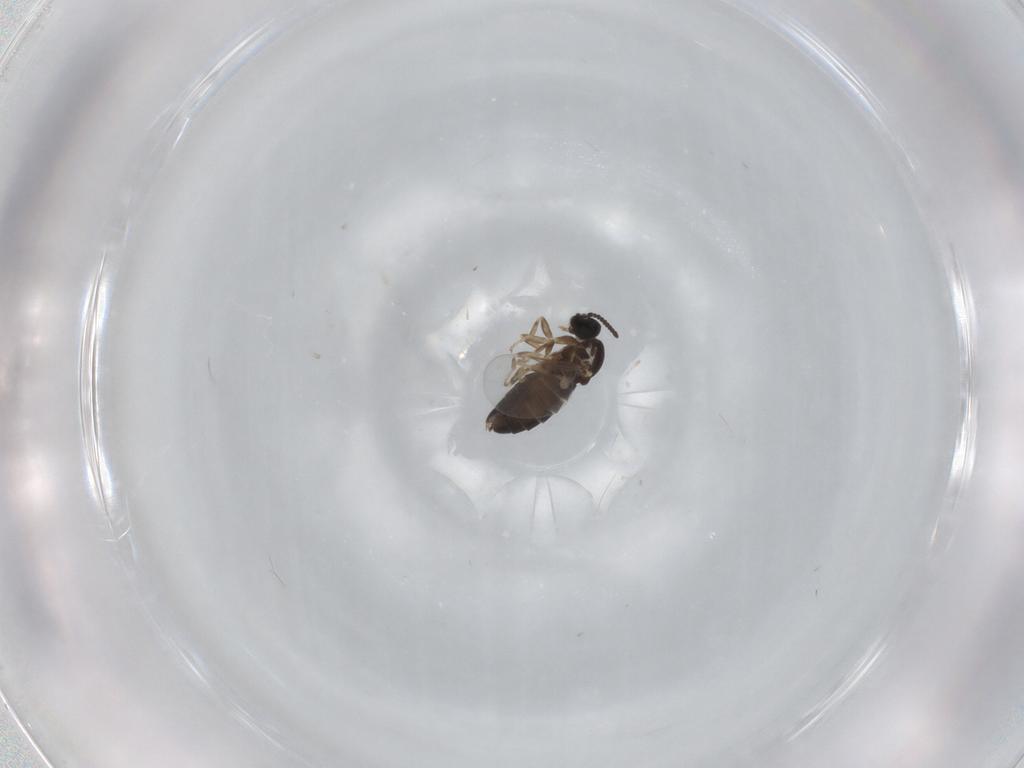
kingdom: Animalia
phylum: Arthropoda
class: Insecta
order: Diptera
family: Scatopsidae
